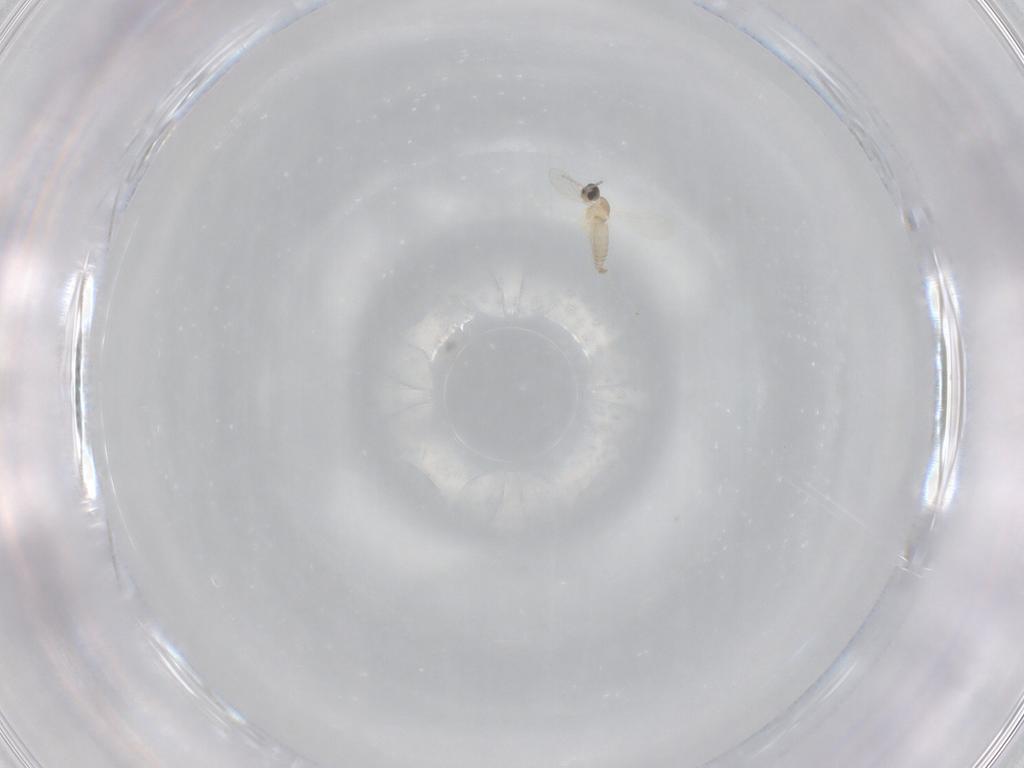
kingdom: Animalia
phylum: Arthropoda
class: Insecta
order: Diptera
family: Cecidomyiidae
